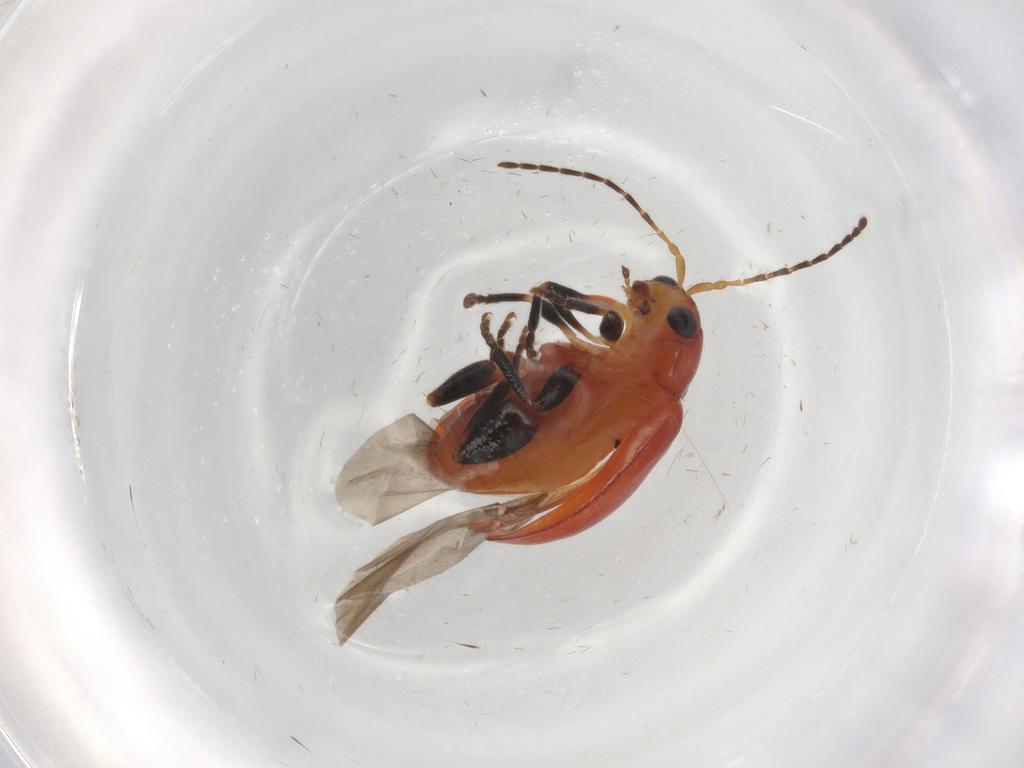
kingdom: Animalia
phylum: Arthropoda
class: Insecta
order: Coleoptera
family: Chrysomelidae
